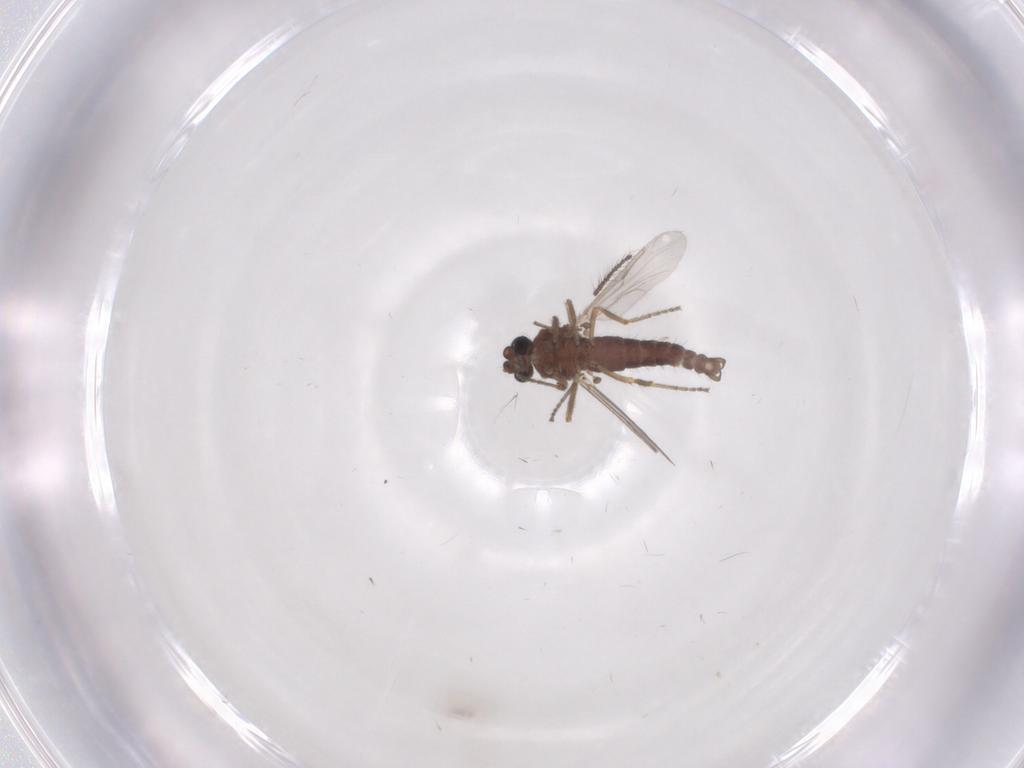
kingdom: Animalia
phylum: Arthropoda
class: Insecta
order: Diptera
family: Ceratopogonidae
